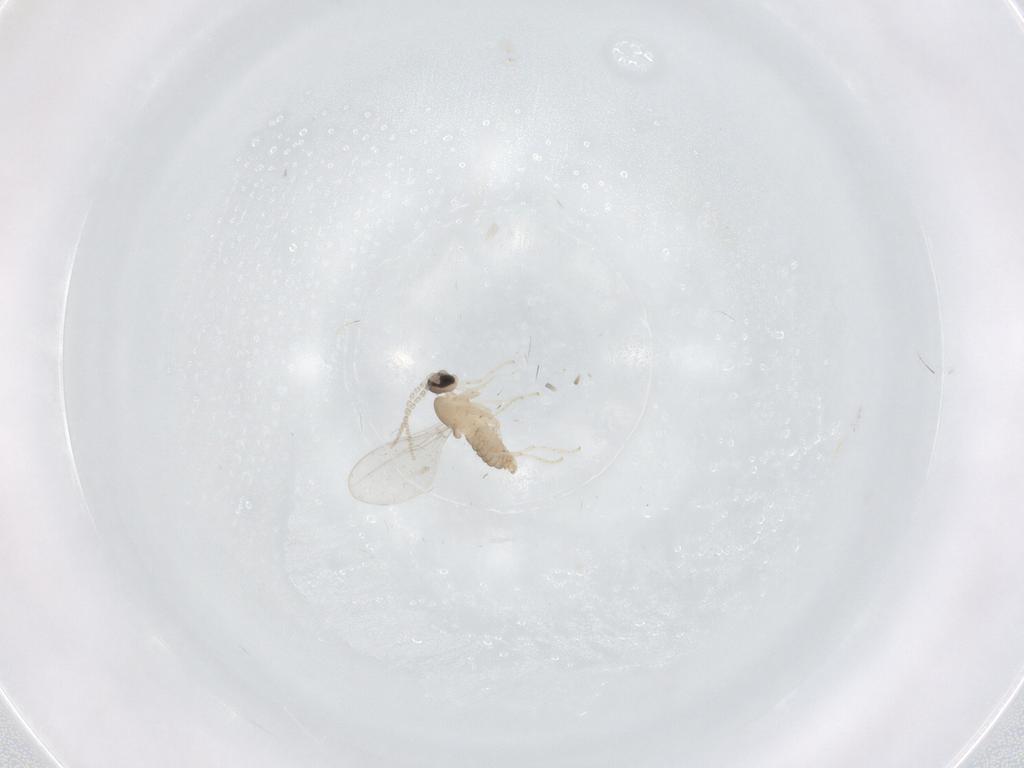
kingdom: Animalia
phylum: Arthropoda
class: Insecta
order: Diptera
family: Cecidomyiidae
